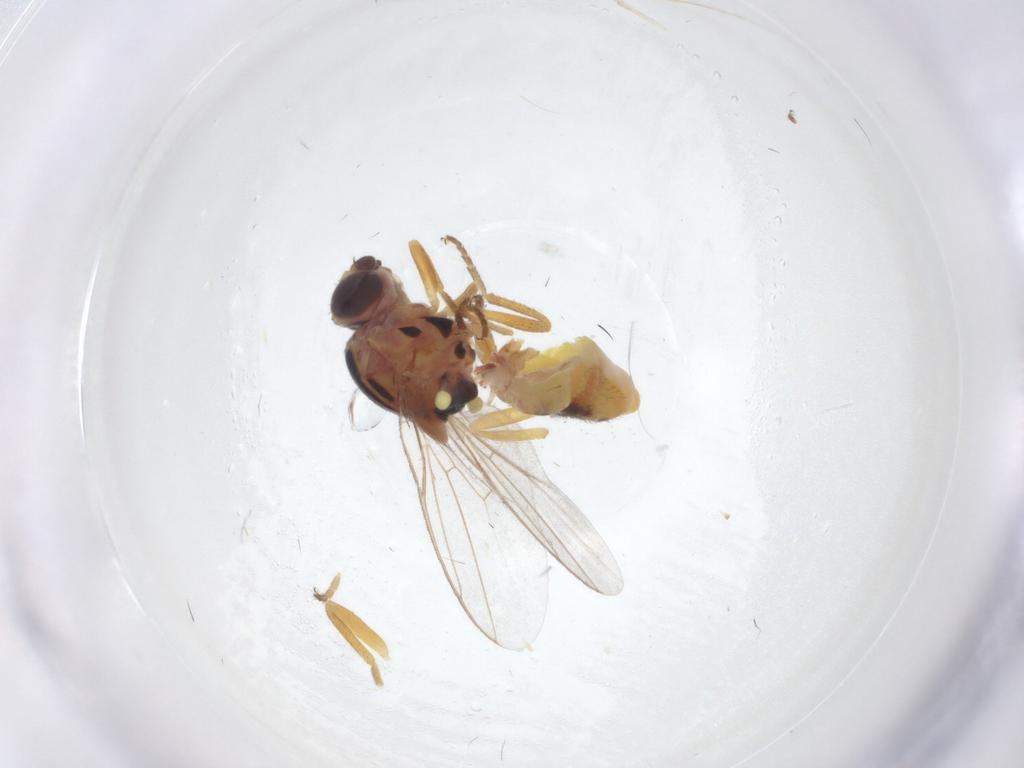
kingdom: Animalia
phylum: Arthropoda
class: Insecta
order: Diptera
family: Chloropidae
